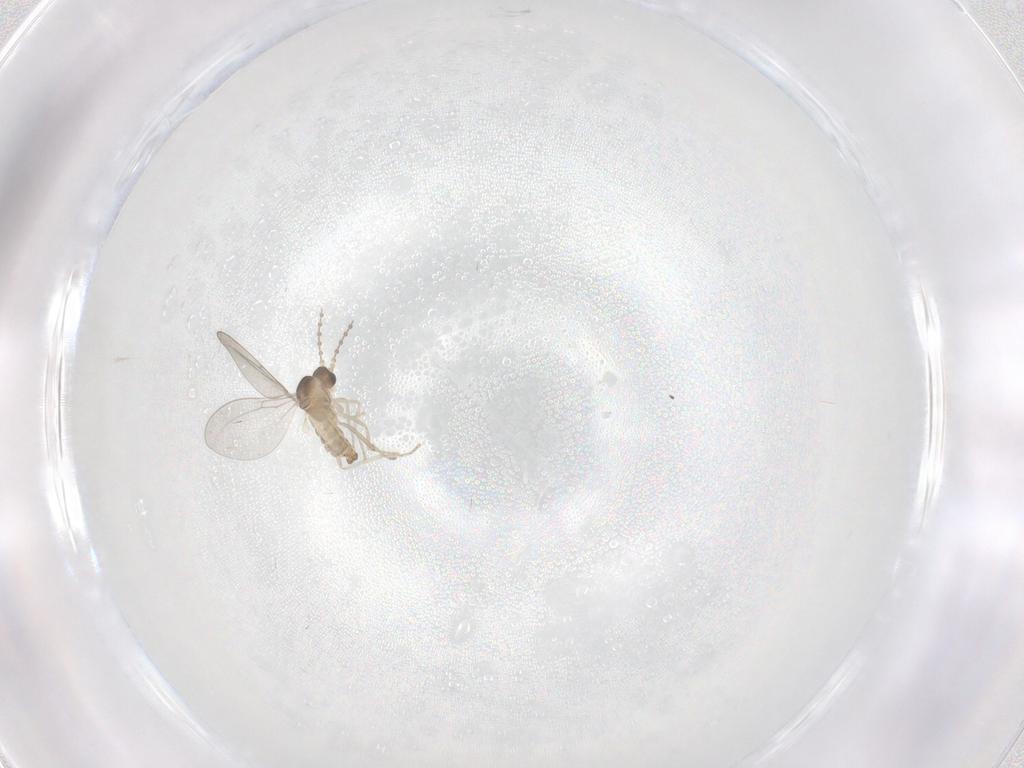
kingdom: Animalia
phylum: Arthropoda
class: Insecta
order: Diptera
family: Cecidomyiidae
